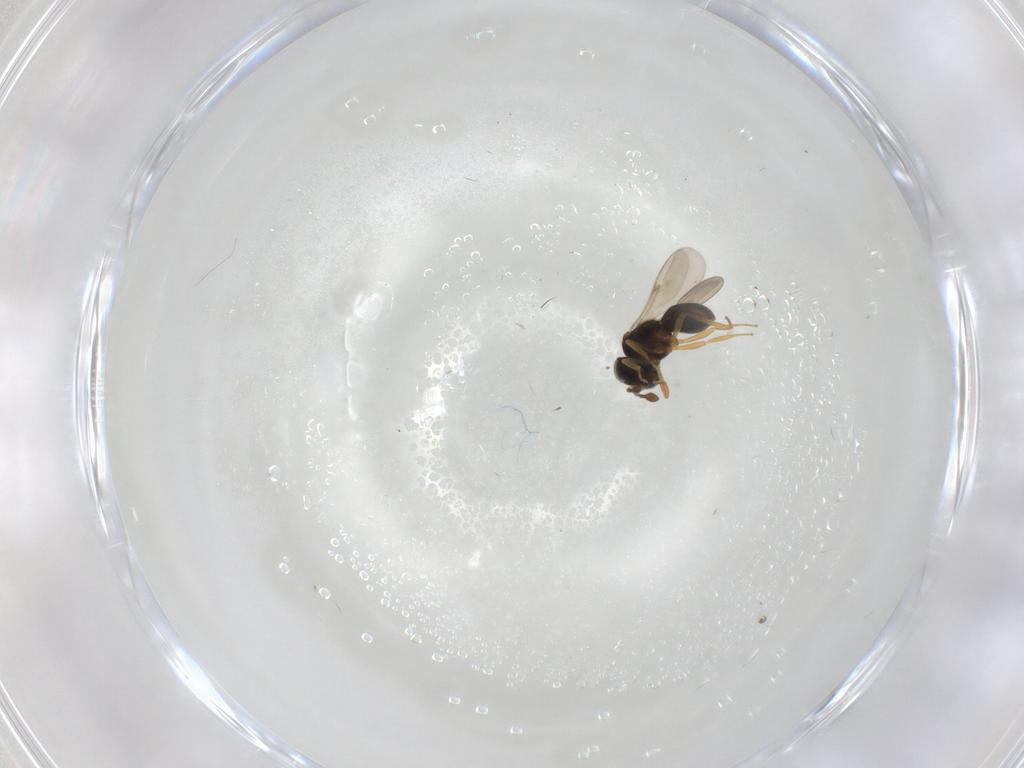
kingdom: Animalia
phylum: Arthropoda
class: Insecta
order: Hymenoptera
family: Scelionidae
